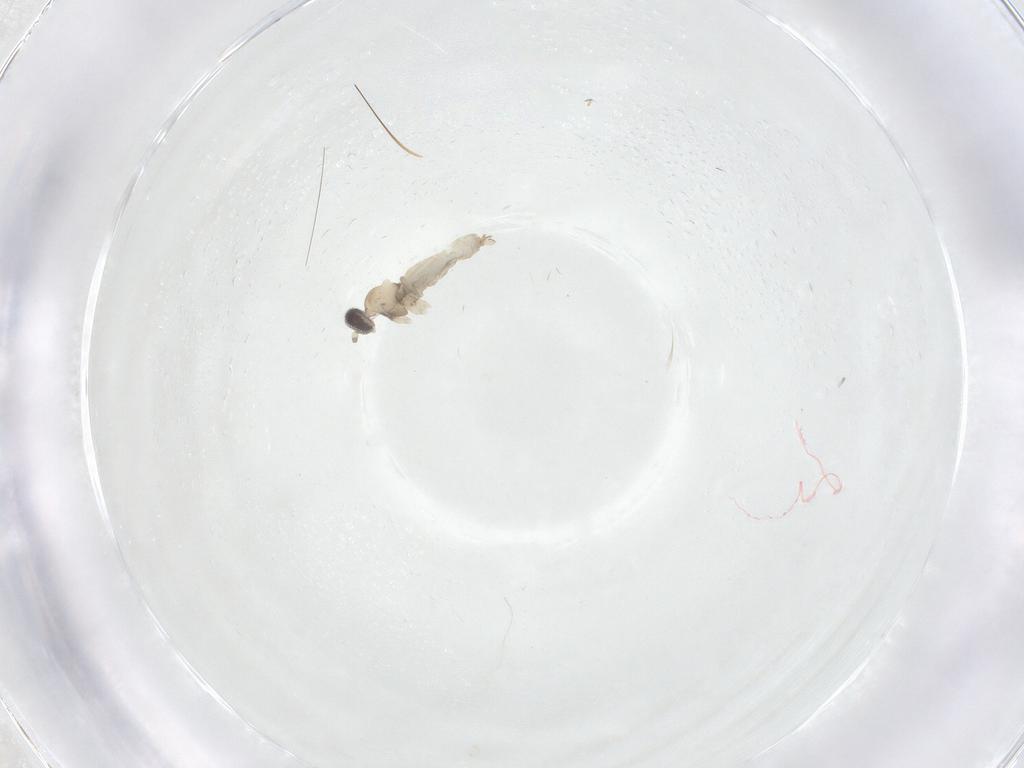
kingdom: Animalia
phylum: Arthropoda
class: Insecta
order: Diptera
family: Cecidomyiidae
